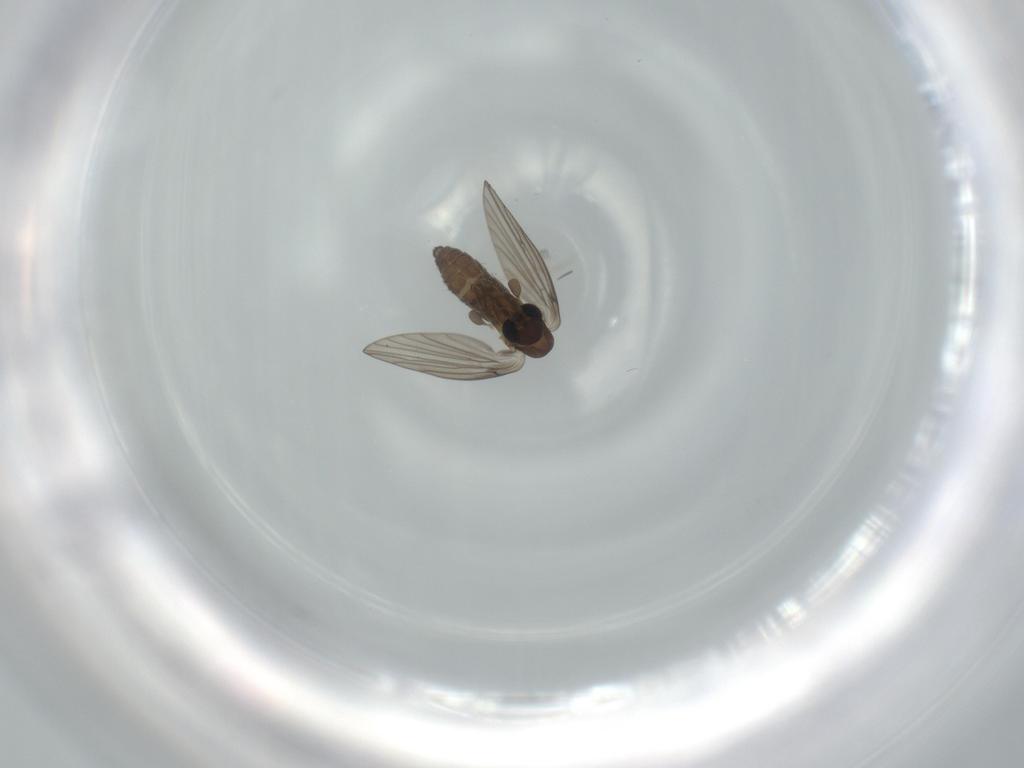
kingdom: Animalia
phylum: Arthropoda
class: Insecta
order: Diptera
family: Psychodidae
